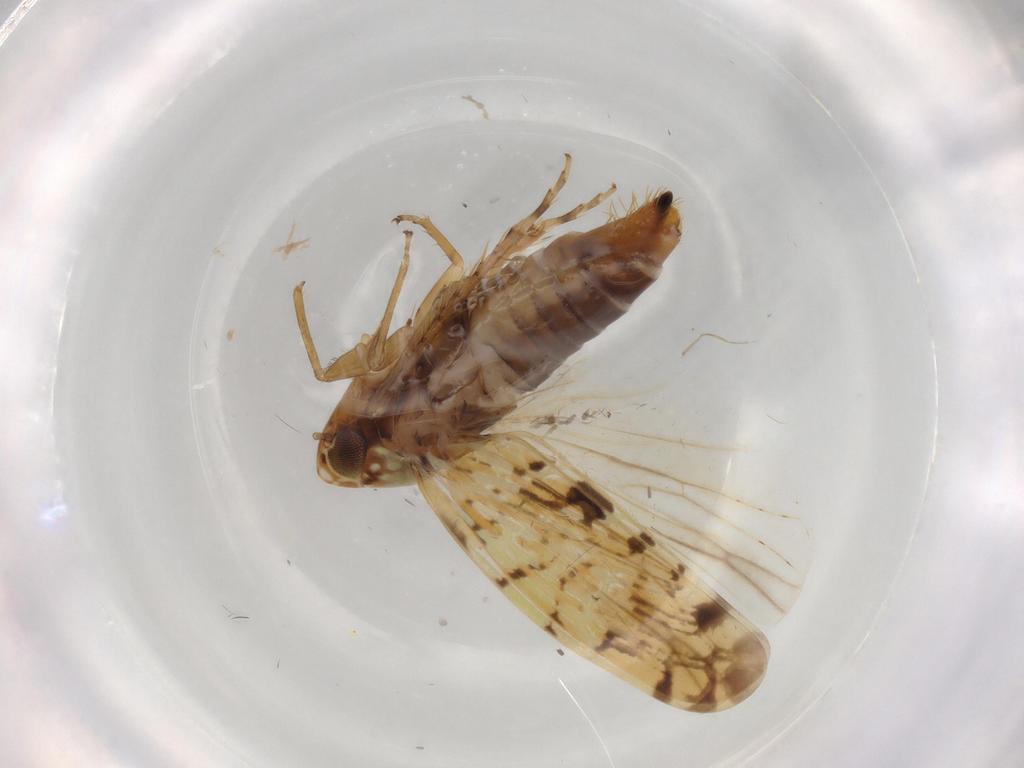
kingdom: Animalia
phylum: Arthropoda
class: Insecta
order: Hemiptera
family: Cicadellidae
